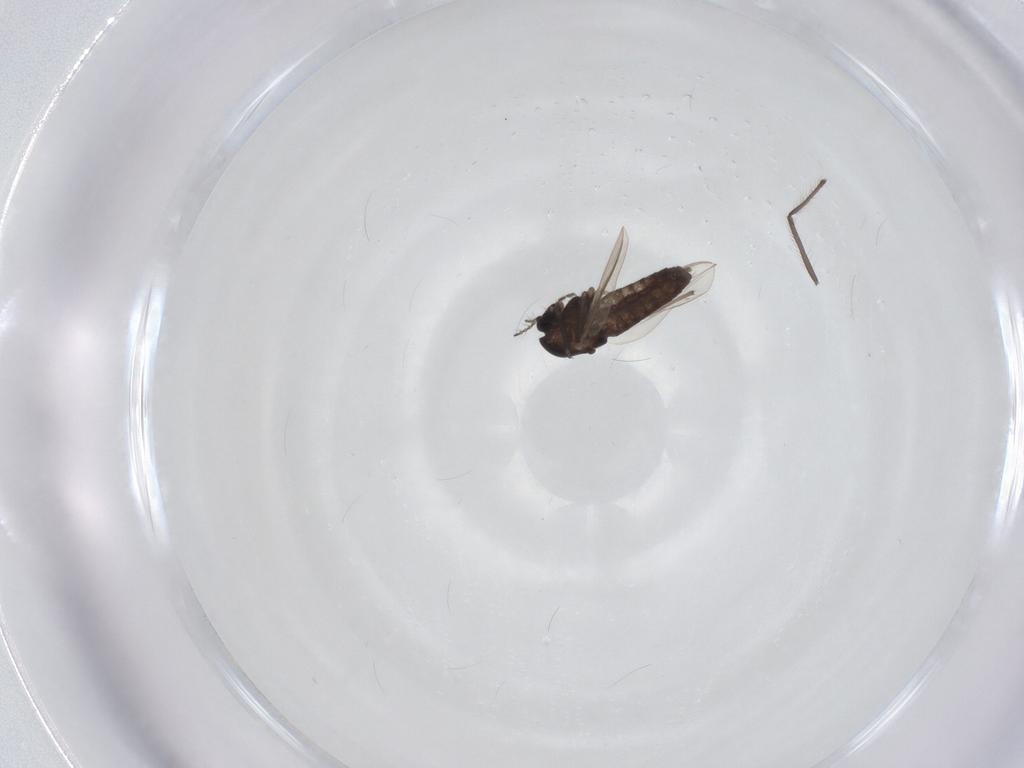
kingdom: Animalia
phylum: Arthropoda
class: Insecta
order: Diptera
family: Chironomidae
